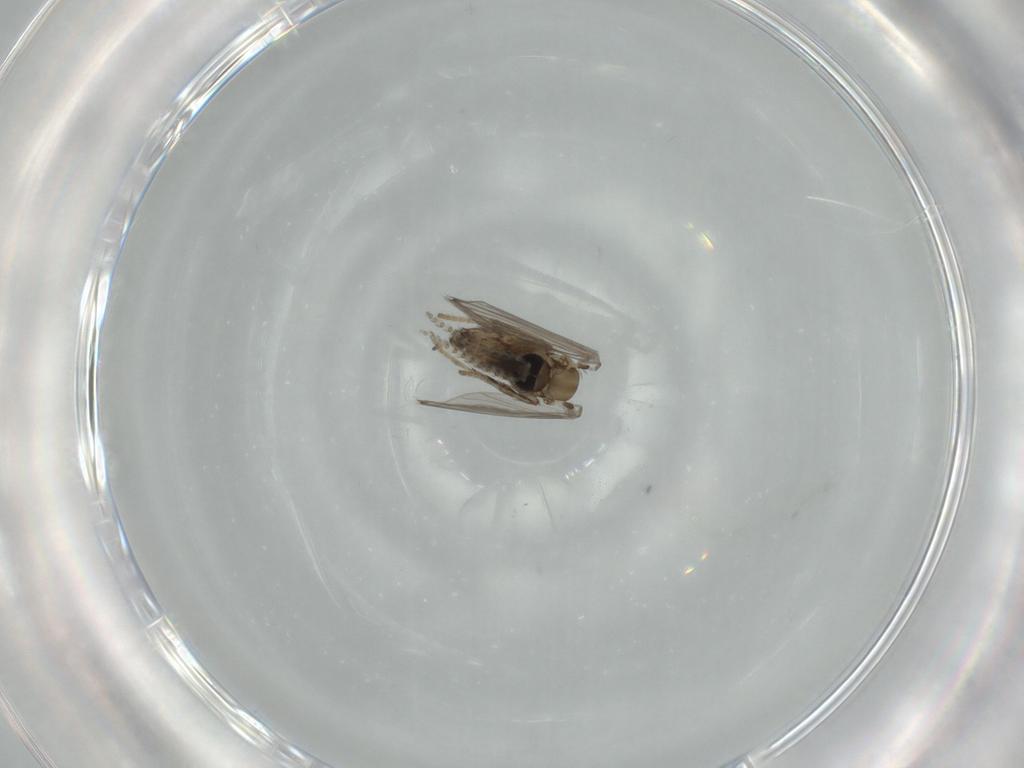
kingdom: Animalia
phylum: Arthropoda
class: Insecta
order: Diptera
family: Psychodidae
